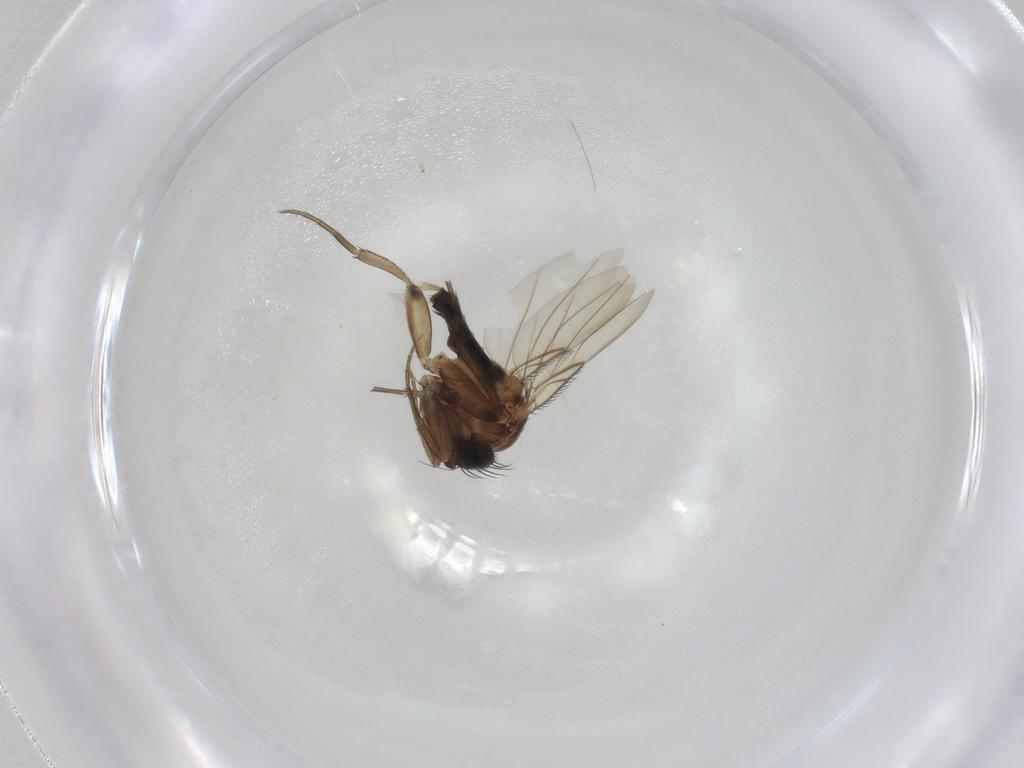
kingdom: Animalia
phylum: Arthropoda
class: Insecta
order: Diptera
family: Phoridae
